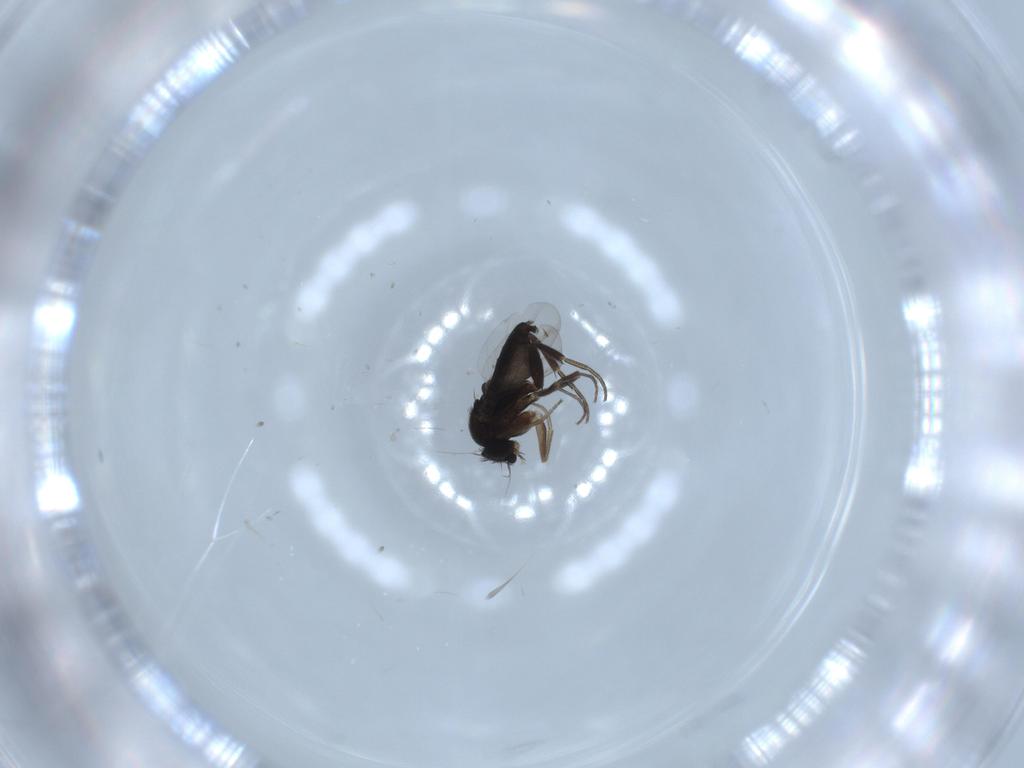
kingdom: Animalia
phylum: Arthropoda
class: Insecta
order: Diptera
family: Phoridae
